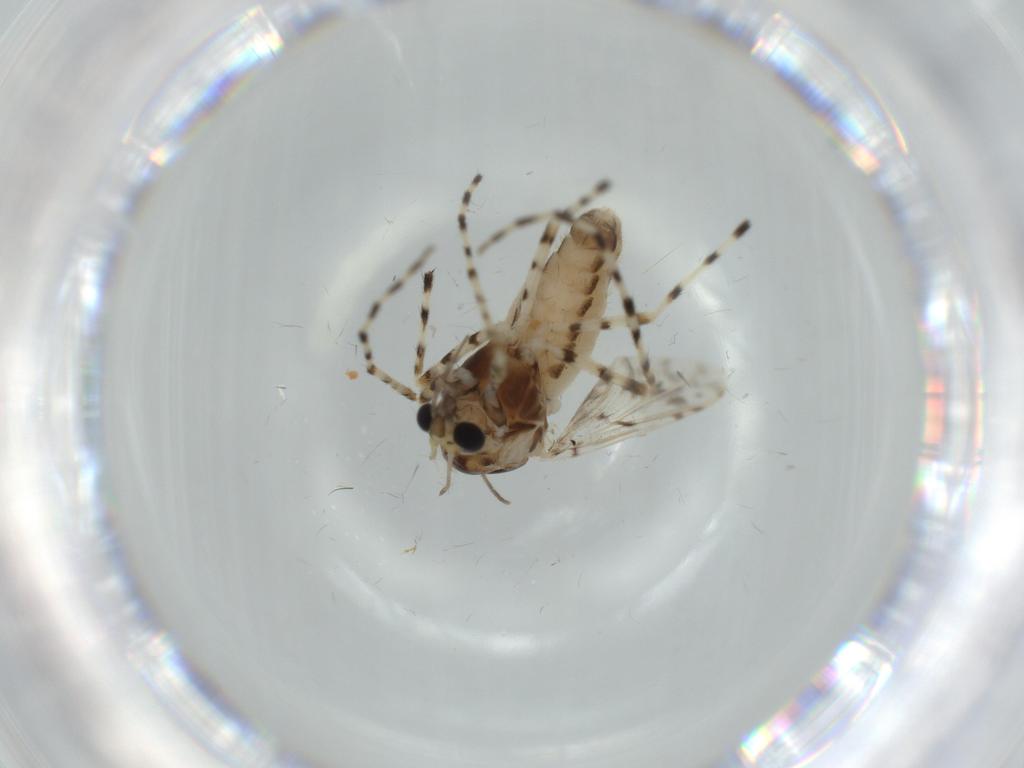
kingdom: Animalia
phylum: Arthropoda
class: Insecta
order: Diptera
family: Chironomidae
